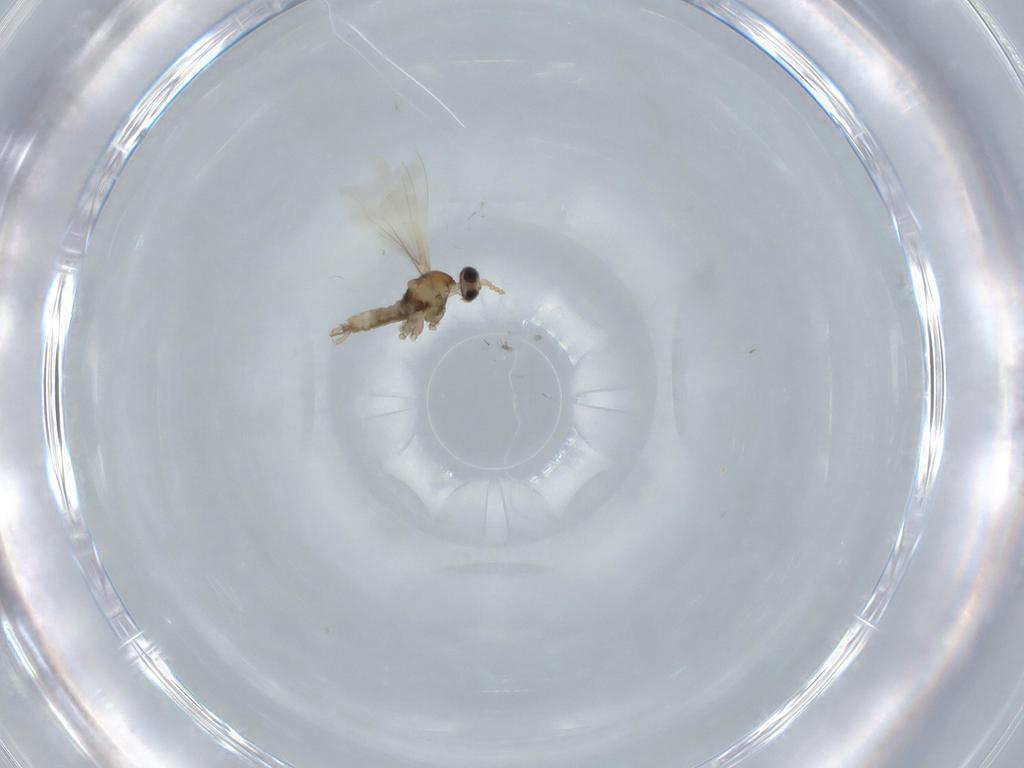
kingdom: Animalia
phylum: Arthropoda
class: Insecta
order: Diptera
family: Cecidomyiidae
